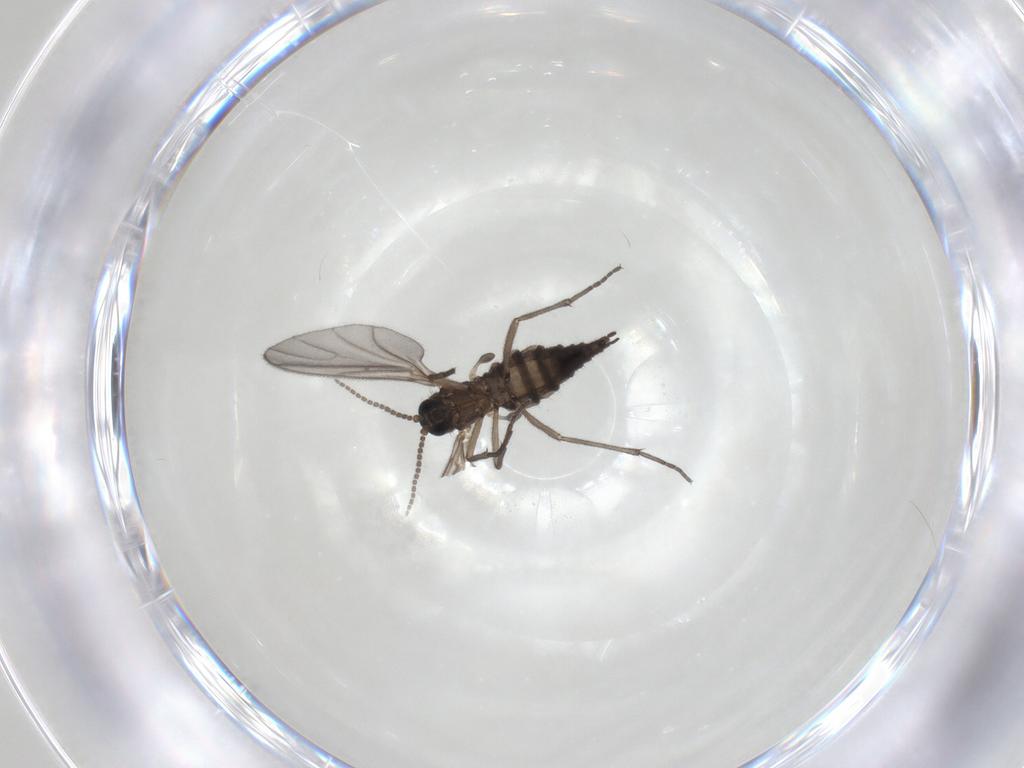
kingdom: Animalia
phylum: Arthropoda
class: Insecta
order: Diptera
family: Sciaridae
